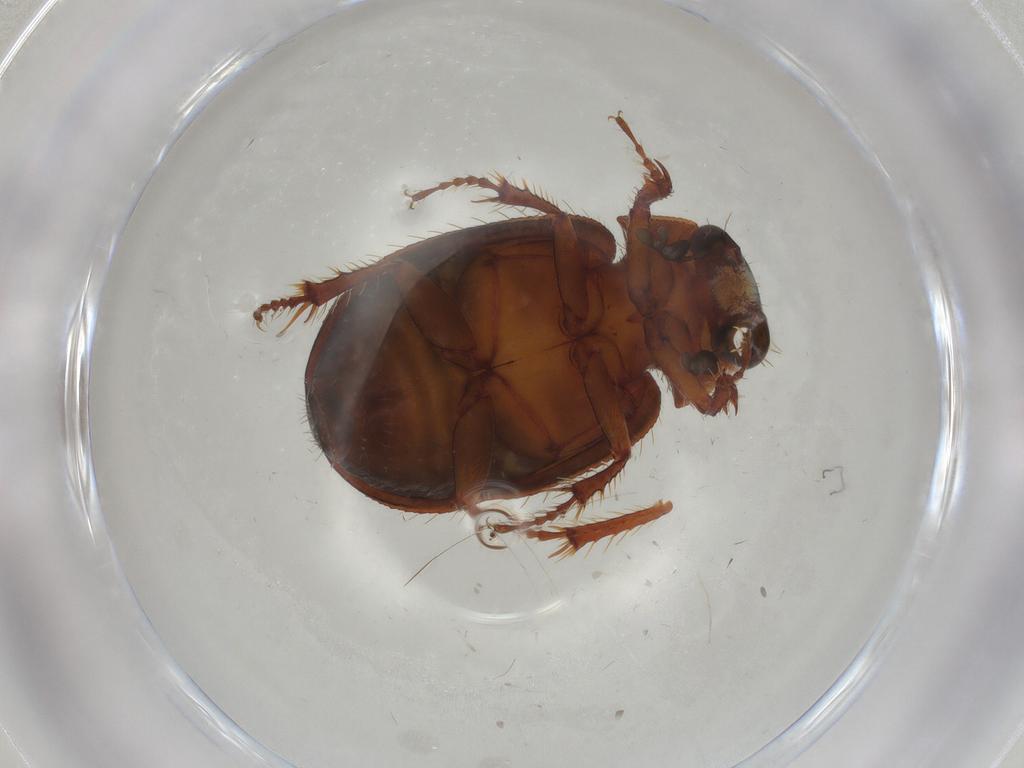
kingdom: Animalia
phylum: Arthropoda
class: Insecta
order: Coleoptera
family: Hybosoridae
